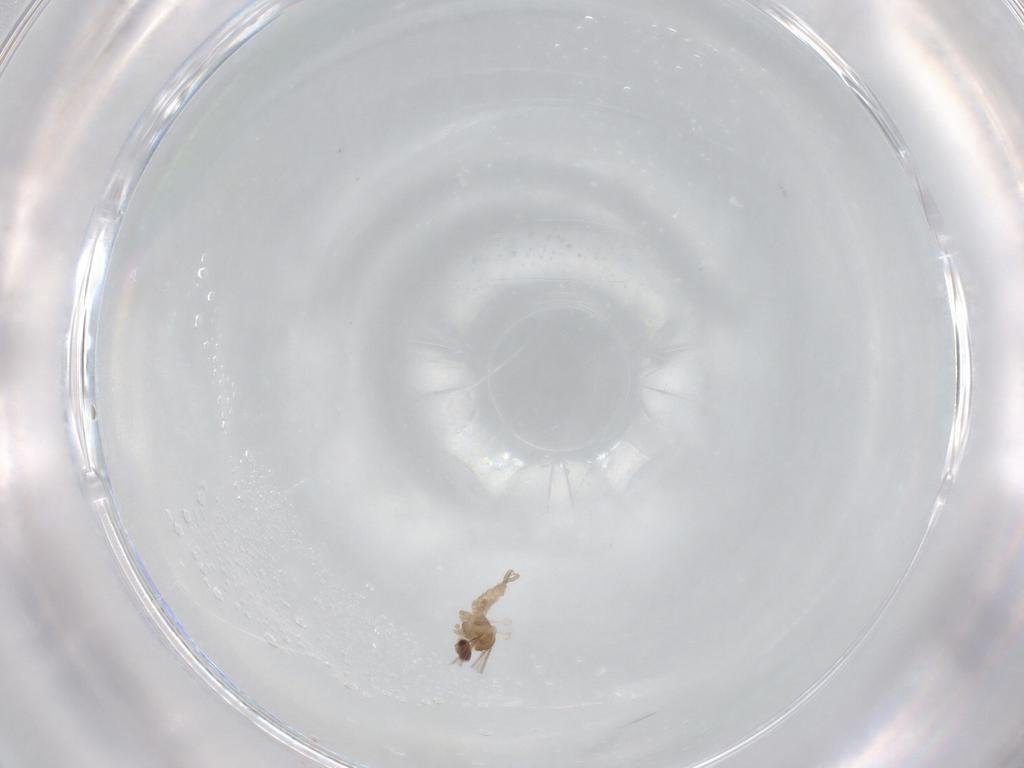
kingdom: Animalia
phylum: Arthropoda
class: Insecta
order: Diptera
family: Cecidomyiidae
